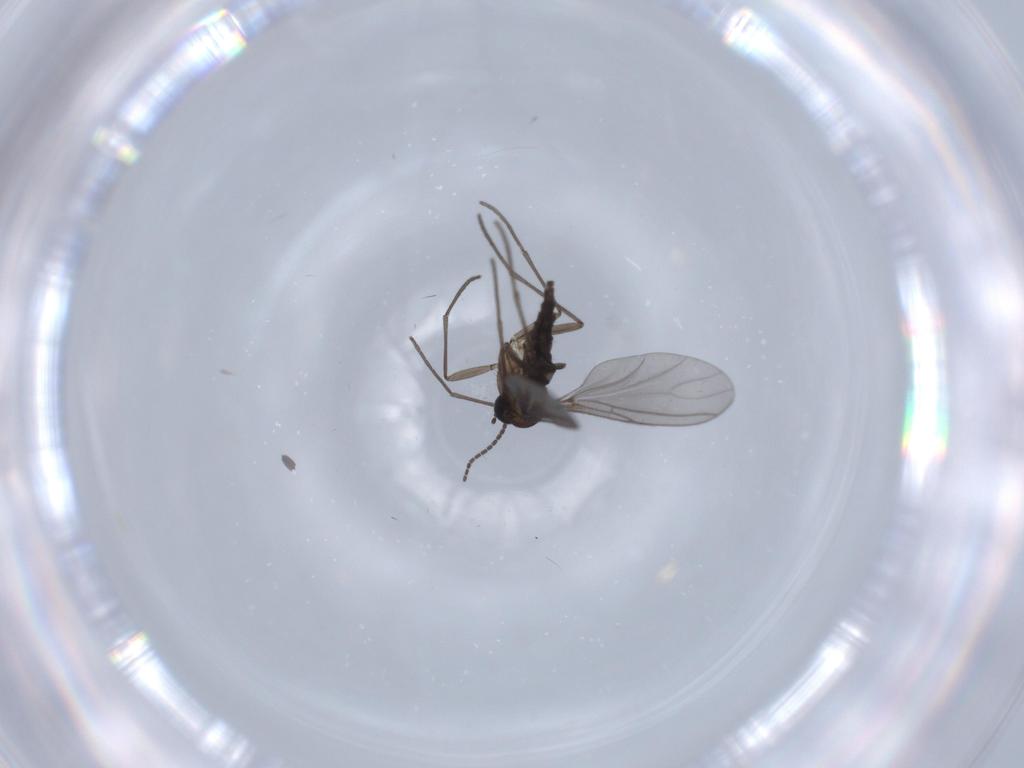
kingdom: Animalia
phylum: Arthropoda
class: Insecta
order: Diptera
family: Sciaridae
